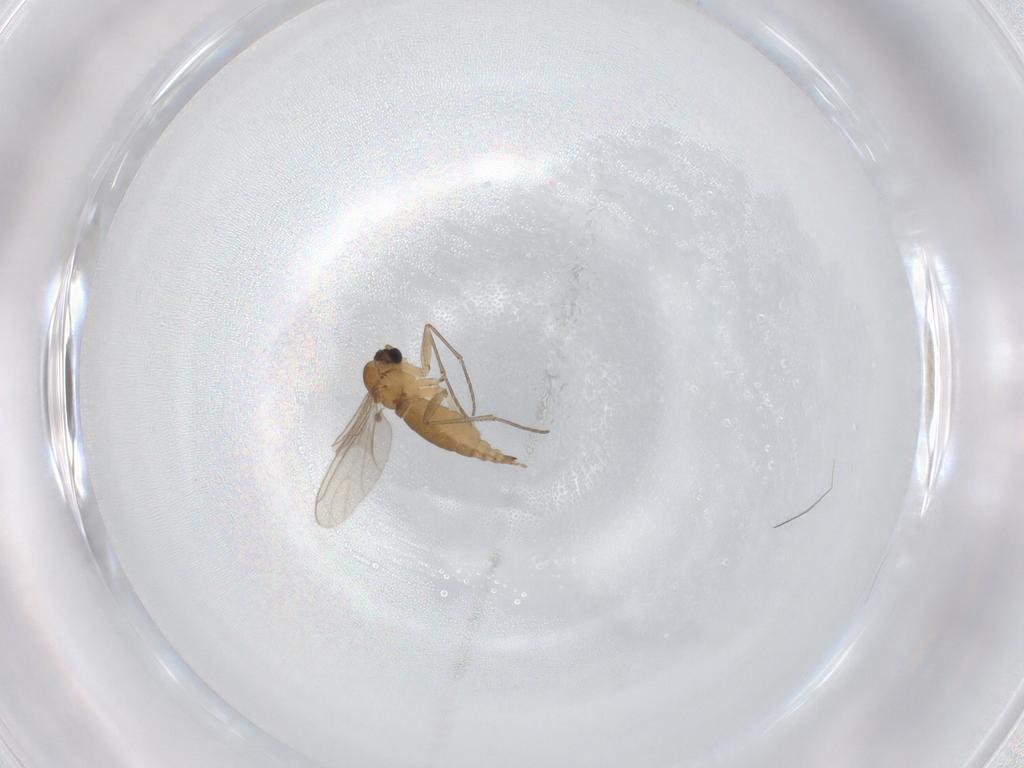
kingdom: Animalia
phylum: Arthropoda
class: Insecta
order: Diptera
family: Sciaridae
